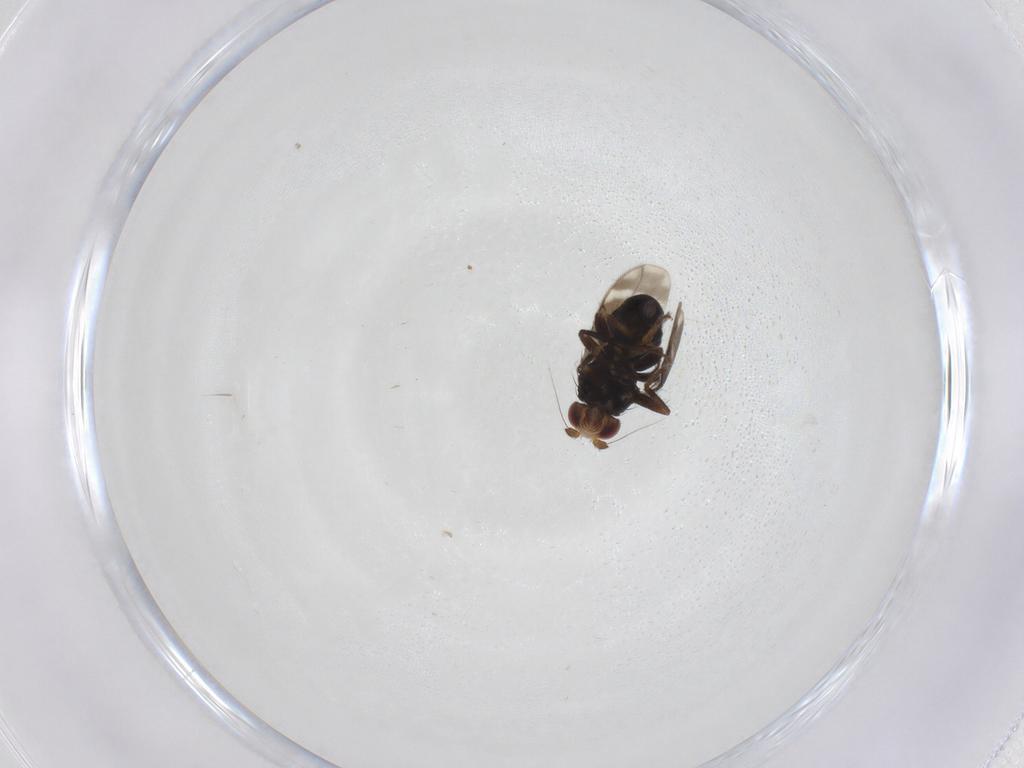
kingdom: Animalia
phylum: Arthropoda
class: Insecta
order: Diptera
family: Sphaeroceridae
